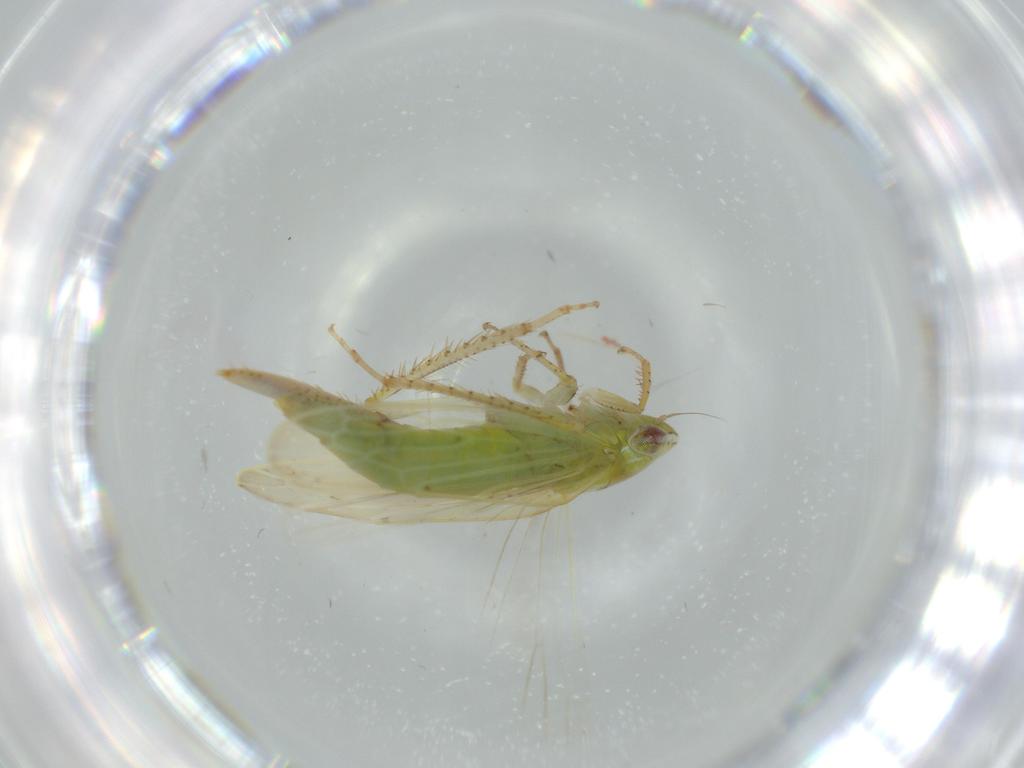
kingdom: Animalia
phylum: Arthropoda
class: Insecta
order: Hemiptera
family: Cicadellidae
